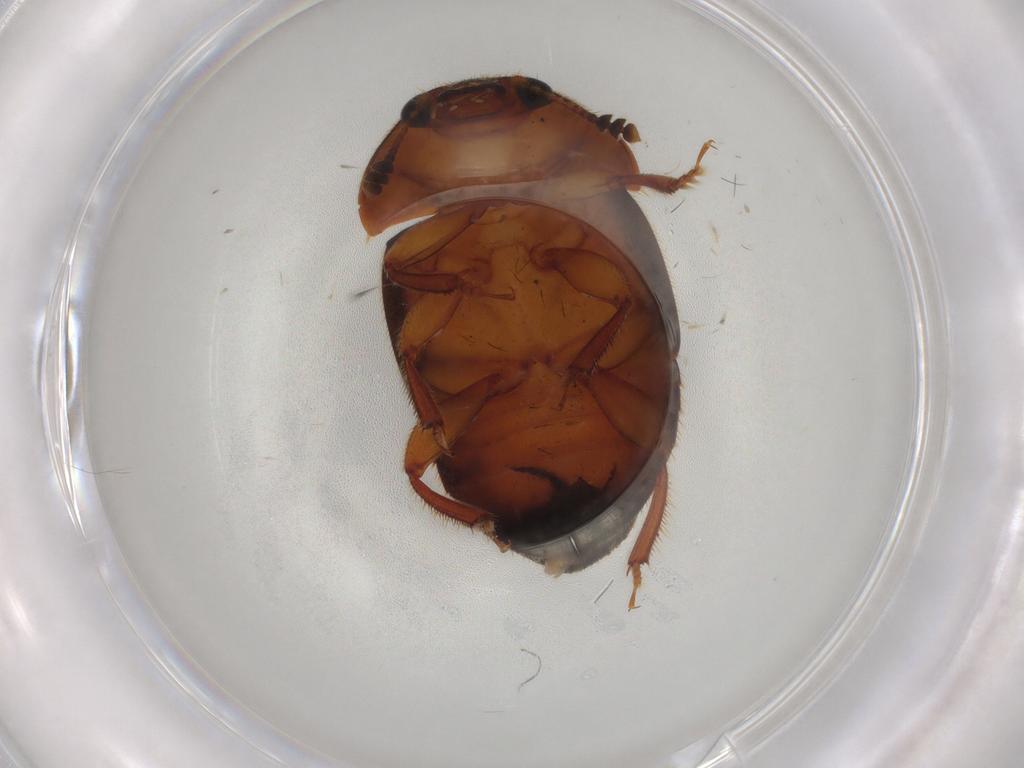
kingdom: Animalia
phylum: Arthropoda
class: Insecta
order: Coleoptera
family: Nitidulidae
